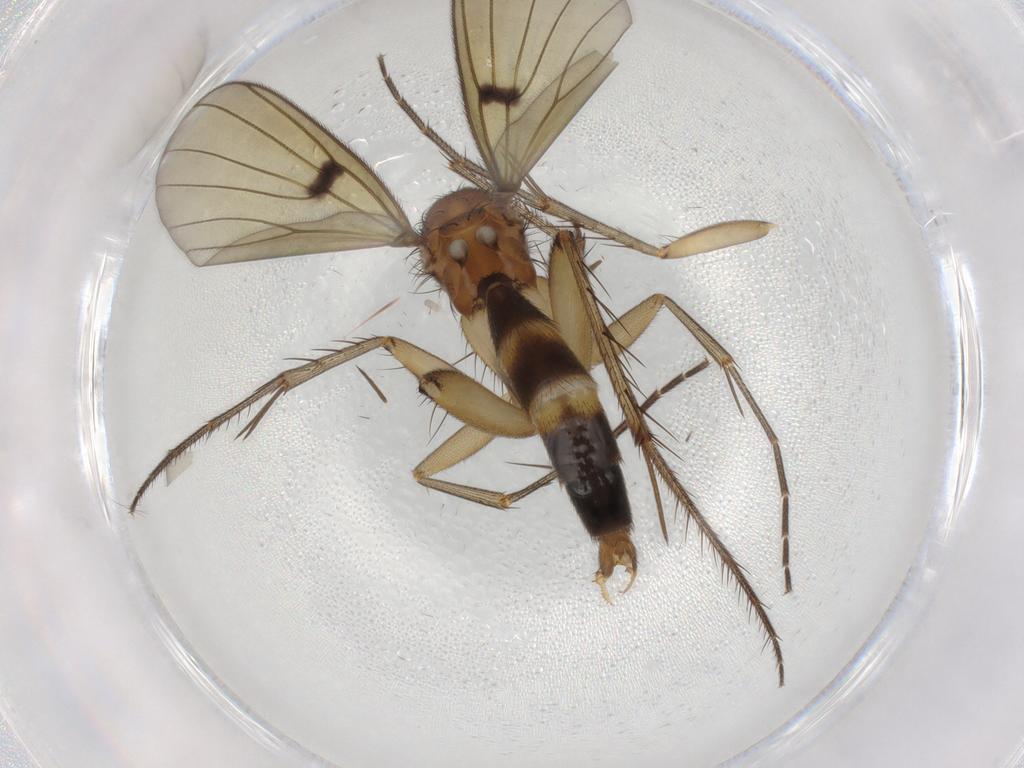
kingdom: Animalia
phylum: Arthropoda
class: Insecta
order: Diptera
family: Mycetophilidae
